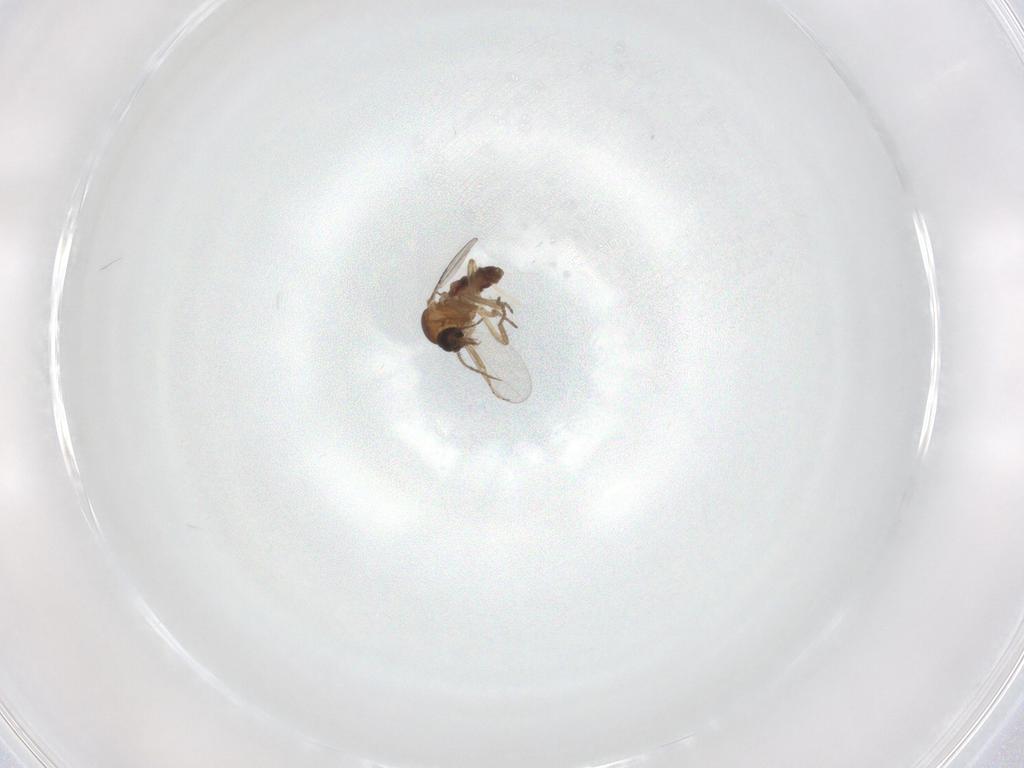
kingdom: Animalia
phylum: Arthropoda
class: Insecta
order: Diptera
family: Chironomidae
